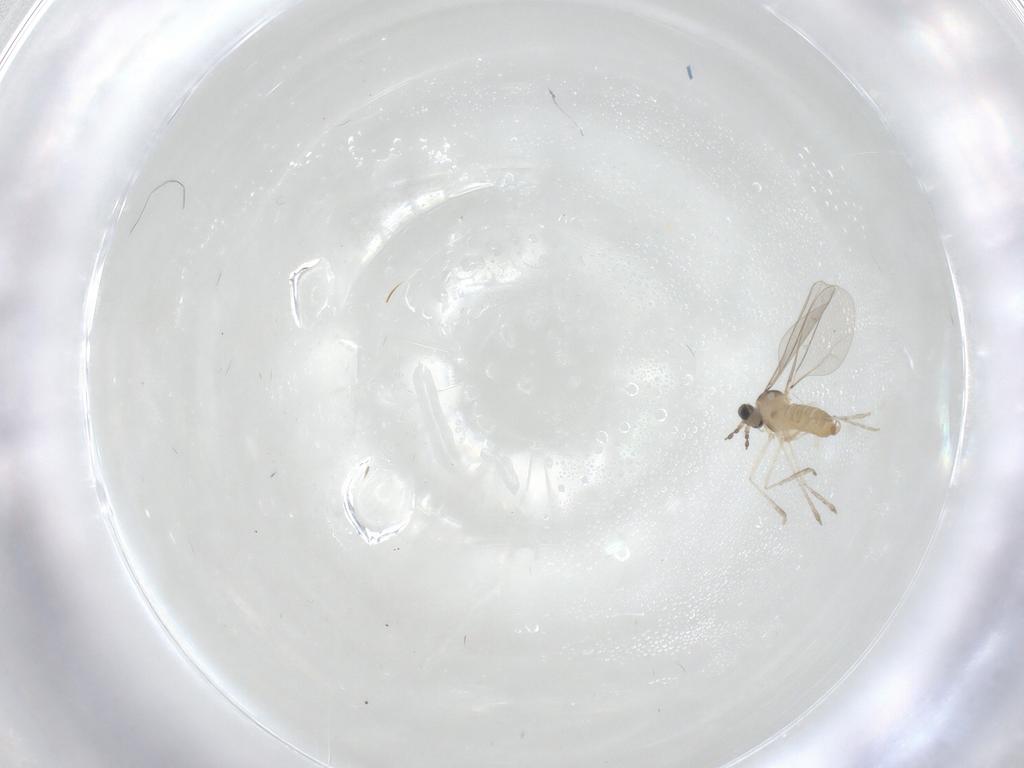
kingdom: Animalia
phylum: Arthropoda
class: Insecta
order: Diptera
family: Cecidomyiidae
